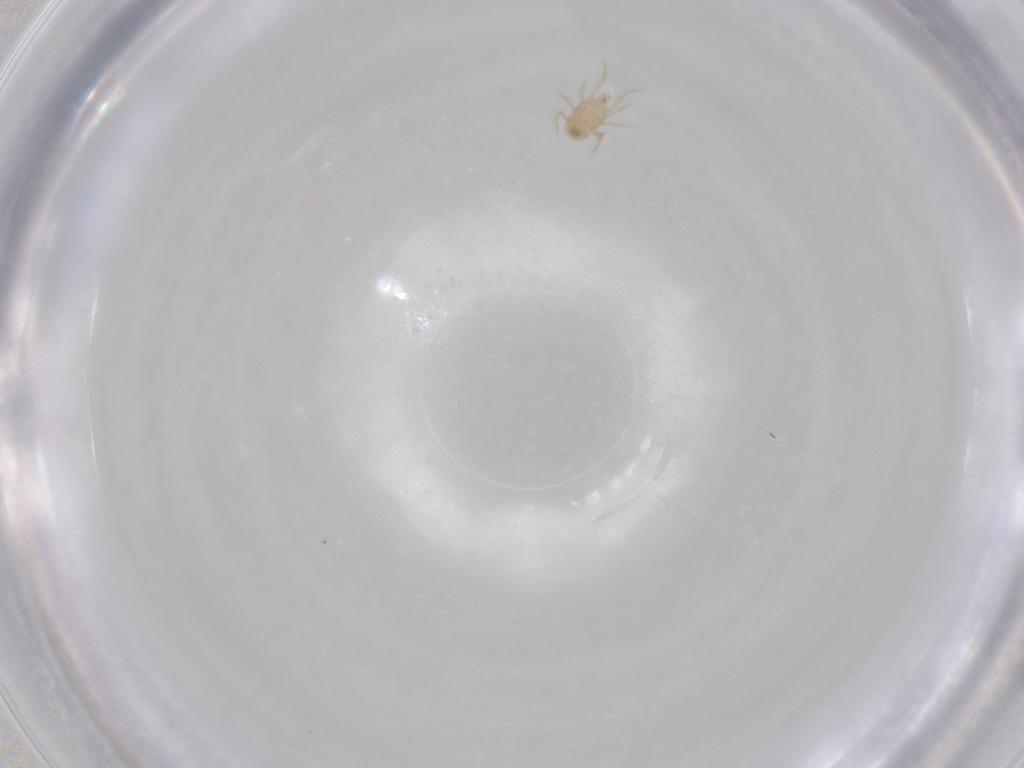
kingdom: Animalia
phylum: Arthropoda
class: Arachnida
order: Mesostigmata
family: Blattisociidae
